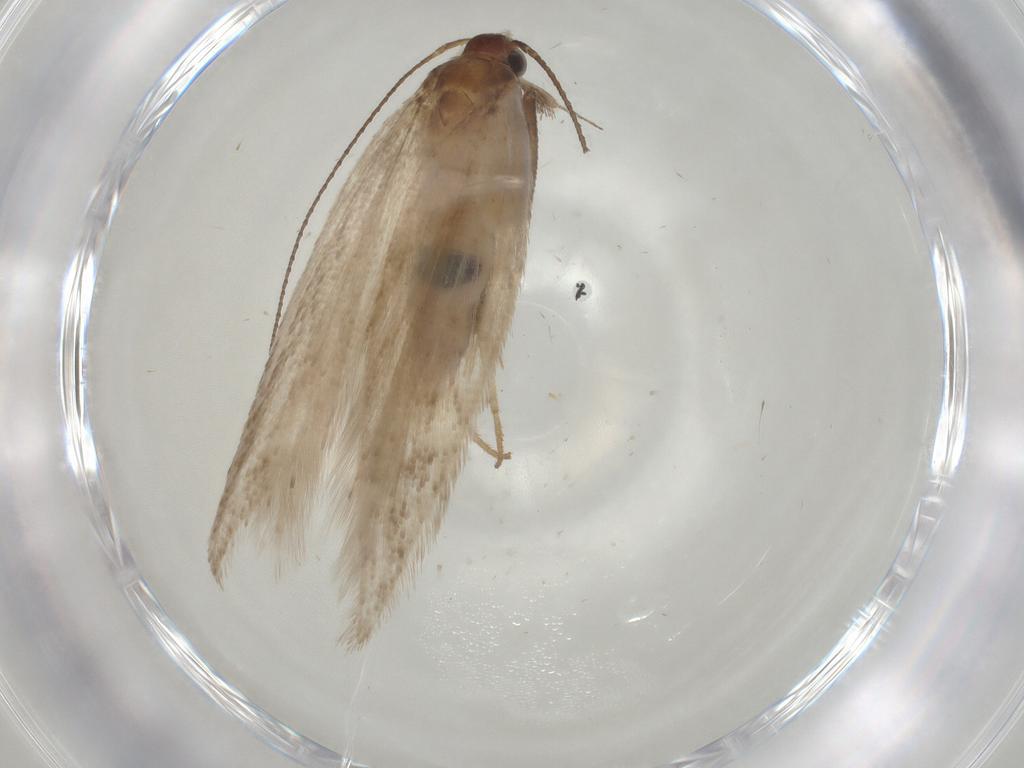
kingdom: Animalia
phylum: Arthropoda
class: Insecta
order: Lepidoptera
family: Gelechiidae
